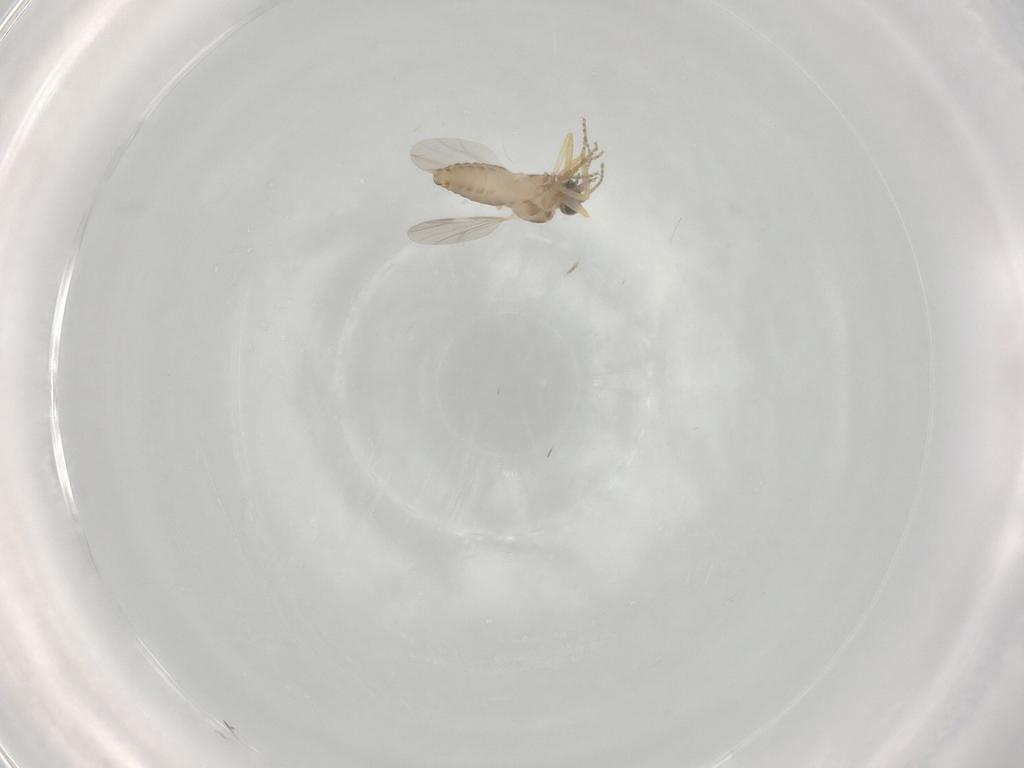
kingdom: Animalia
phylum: Arthropoda
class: Insecta
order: Diptera
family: Ceratopogonidae
